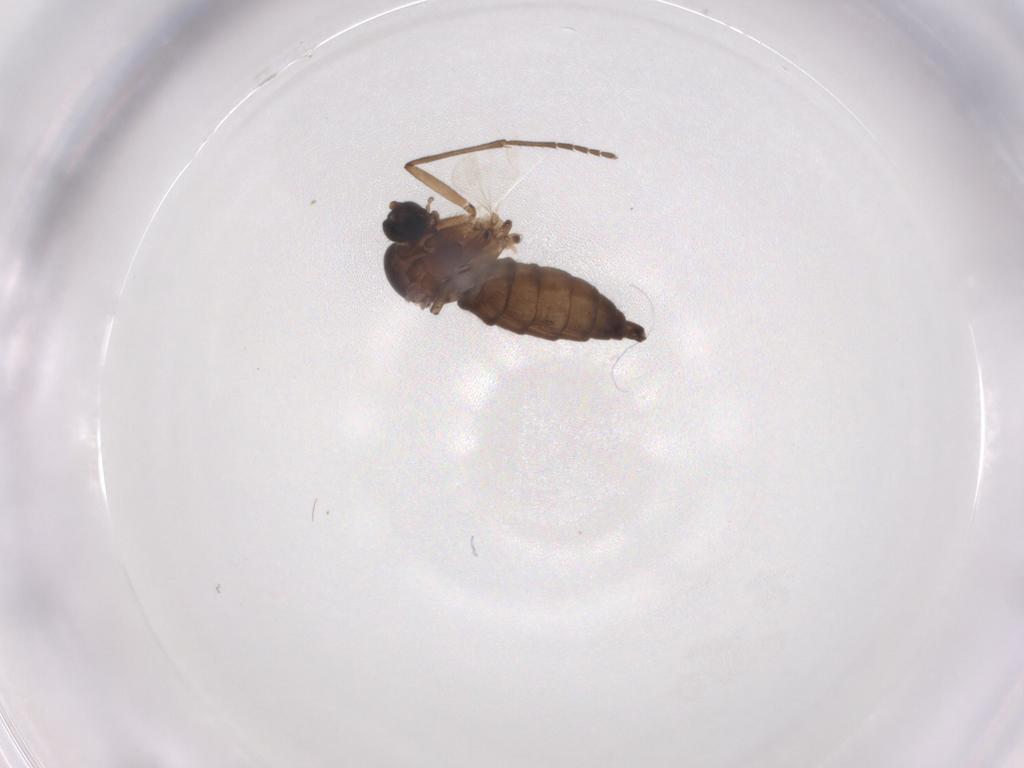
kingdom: Animalia
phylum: Arthropoda
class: Insecta
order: Diptera
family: Sciaridae
